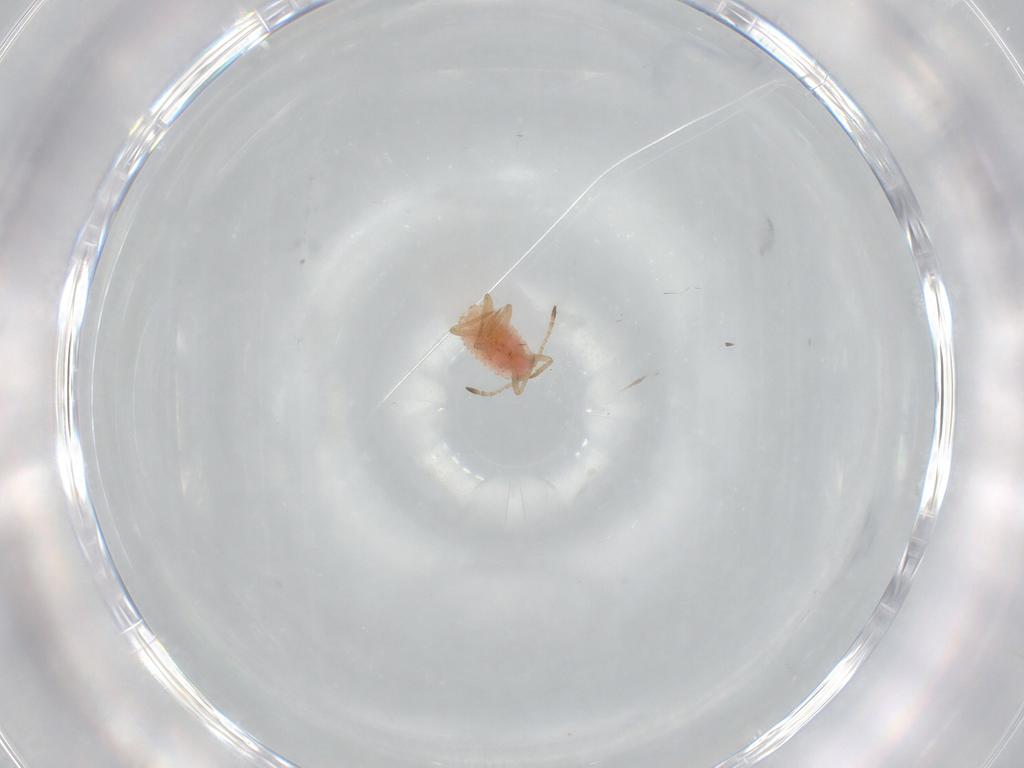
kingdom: Animalia
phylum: Arthropoda
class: Insecta
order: Hemiptera
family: Coccoidea_incertae_sedis
